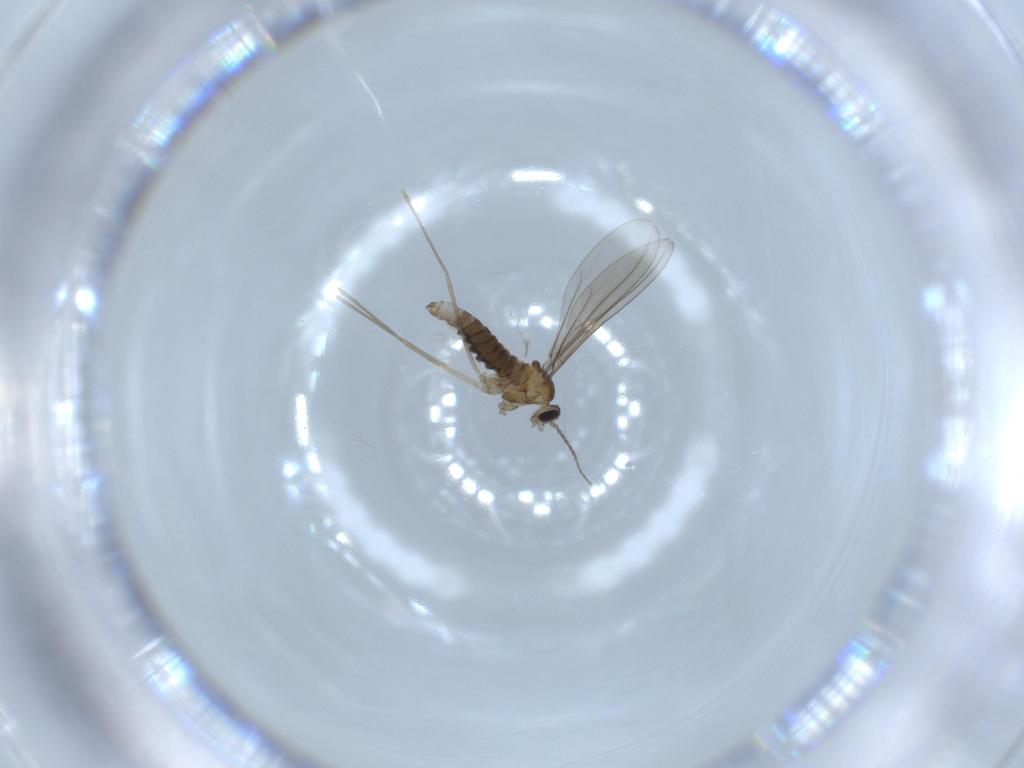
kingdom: Animalia
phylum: Arthropoda
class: Insecta
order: Diptera
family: Cecidomyiidae
